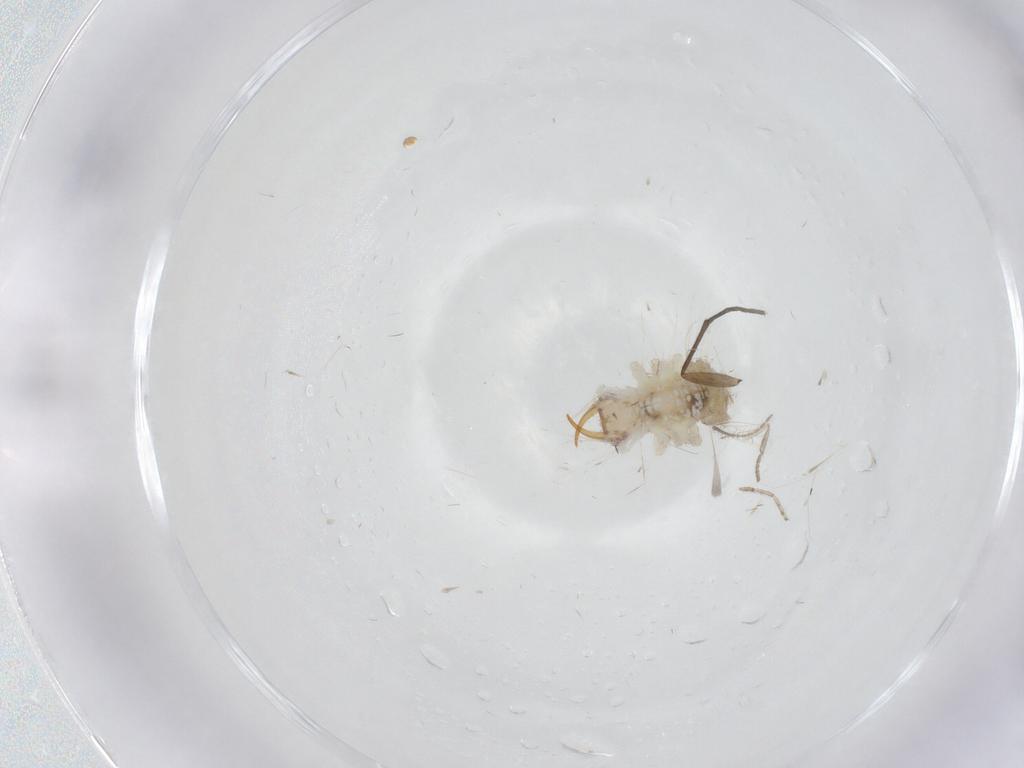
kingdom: Animalia
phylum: Arthropoda
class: Insecta
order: Neuroptera
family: Chrysopidae
